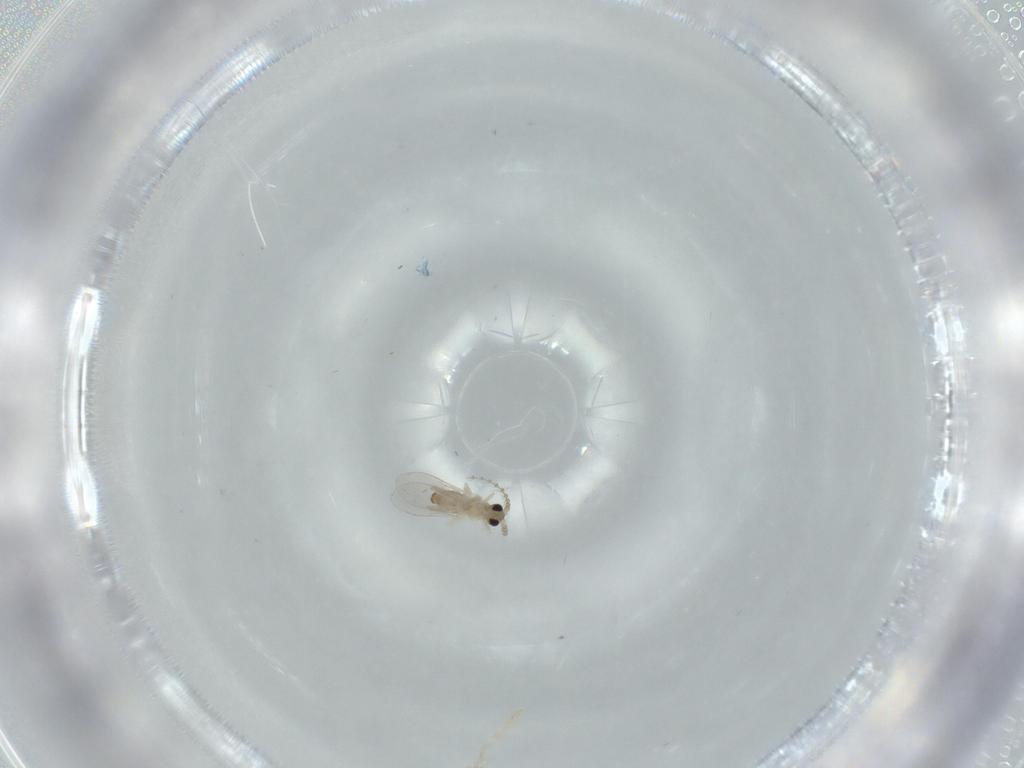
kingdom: Animalia
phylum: Arthropoda
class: Insecta
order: Diptera
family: Cecidomyiidae
